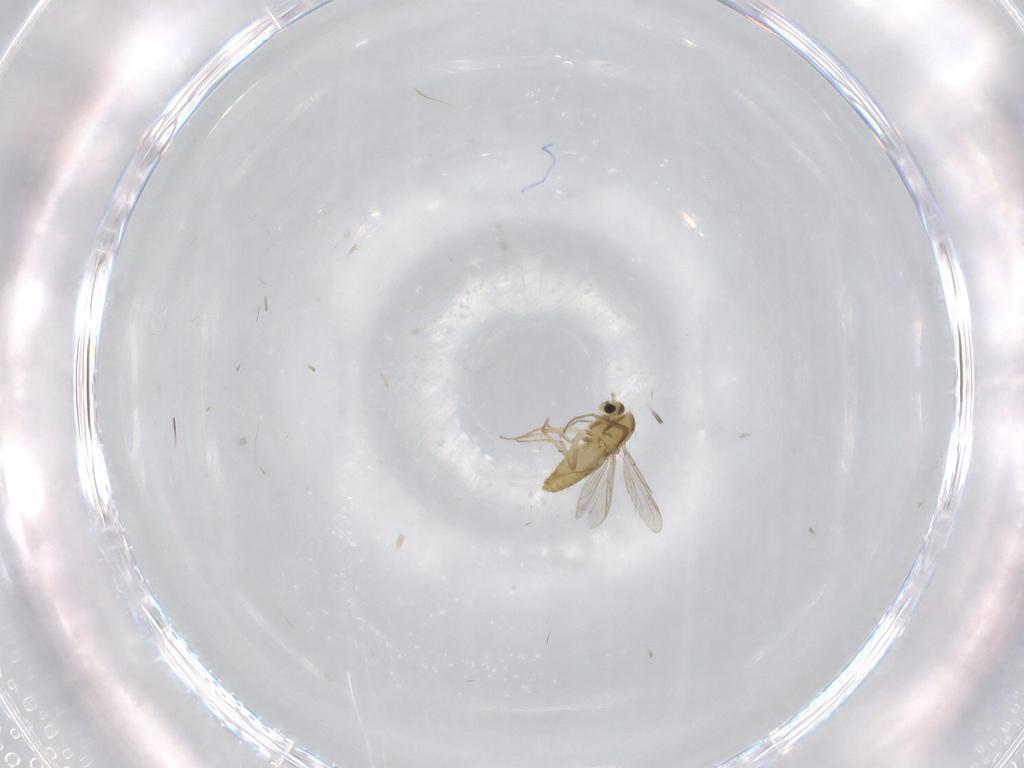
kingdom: Animalia
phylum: Arthropoda
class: Insecta
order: Diptera
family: Chironomidae
